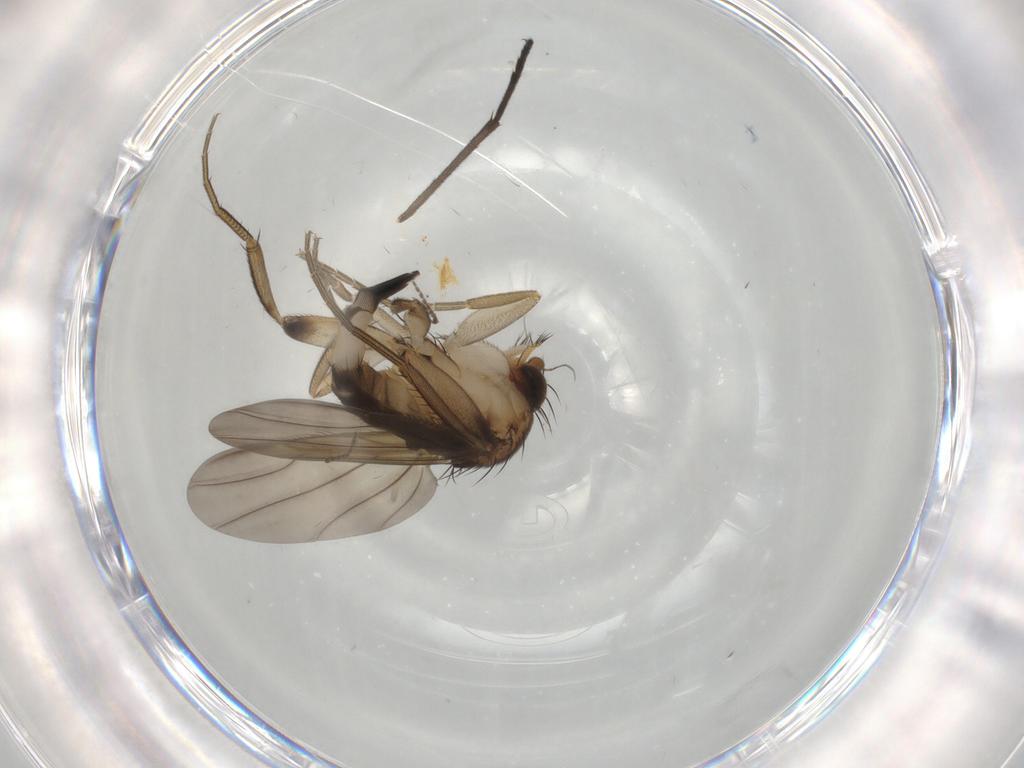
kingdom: Animalia
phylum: Arthropoda
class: Insecta
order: Diptera
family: Phoridae
